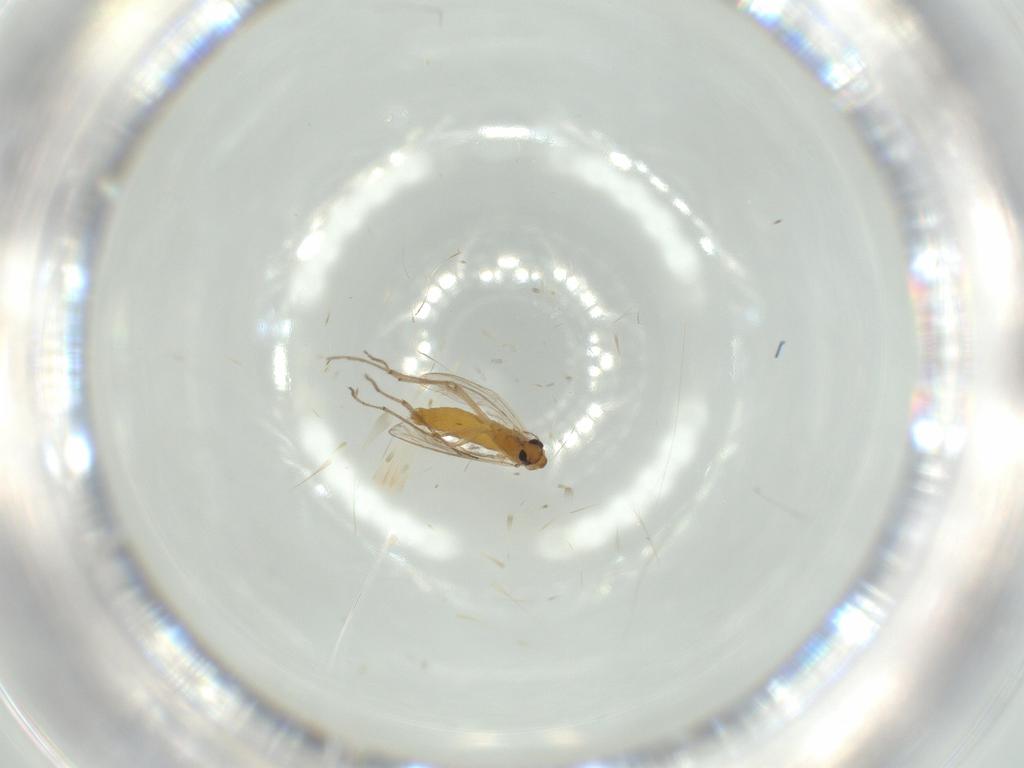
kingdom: Animalia
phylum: Arthropoda
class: Insecta
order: Diptera
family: Chironomidae
